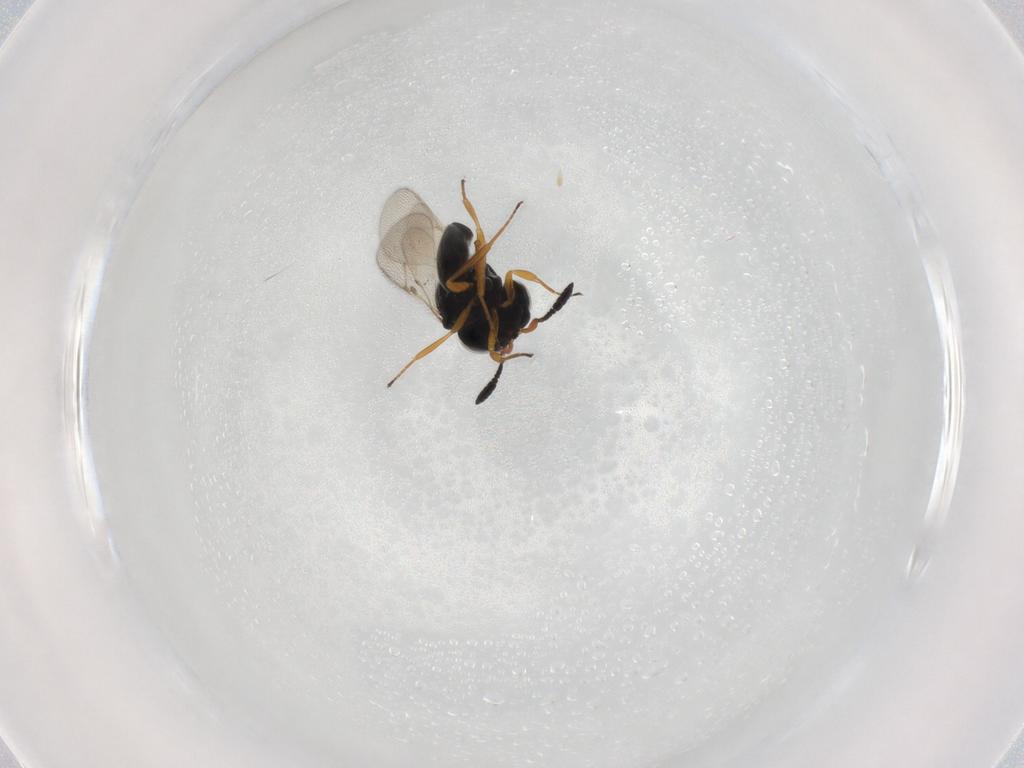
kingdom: Animalia
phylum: Arthropoda
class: Insecta
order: Hymenoptera
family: Scelionidae
